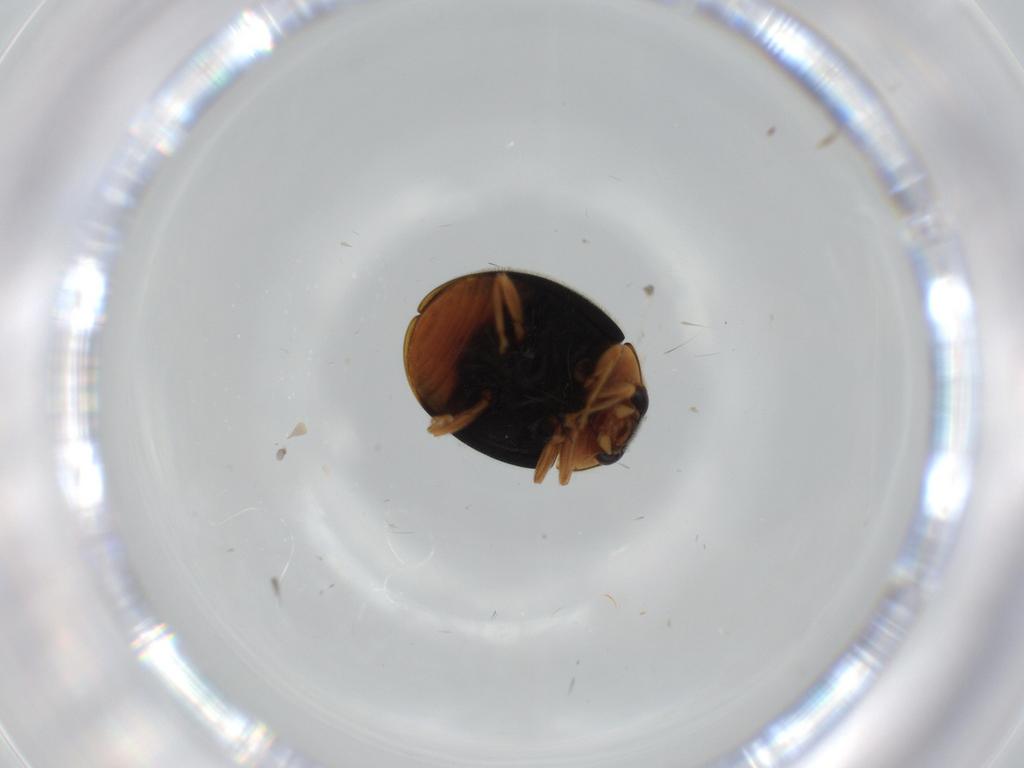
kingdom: Animalia
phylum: Arthropoda
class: Insecta
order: Coleoptera
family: Coccinellidae
